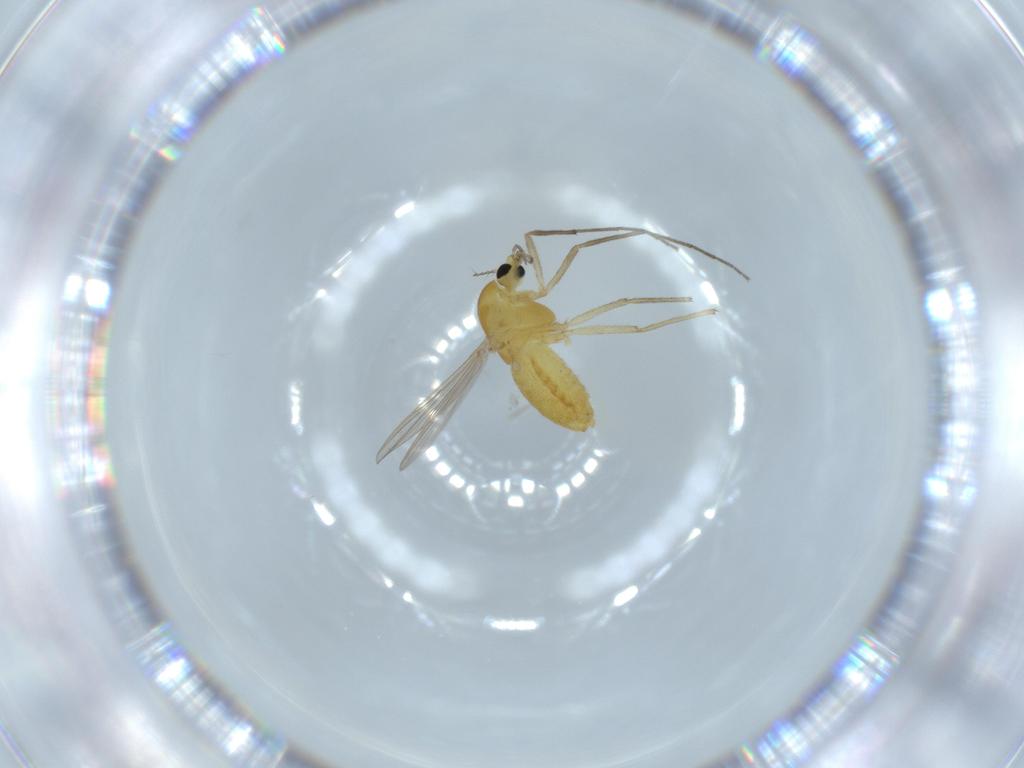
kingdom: Animalia
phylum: Arthropoda
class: Insecta
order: Diptera
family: Chironomidae
